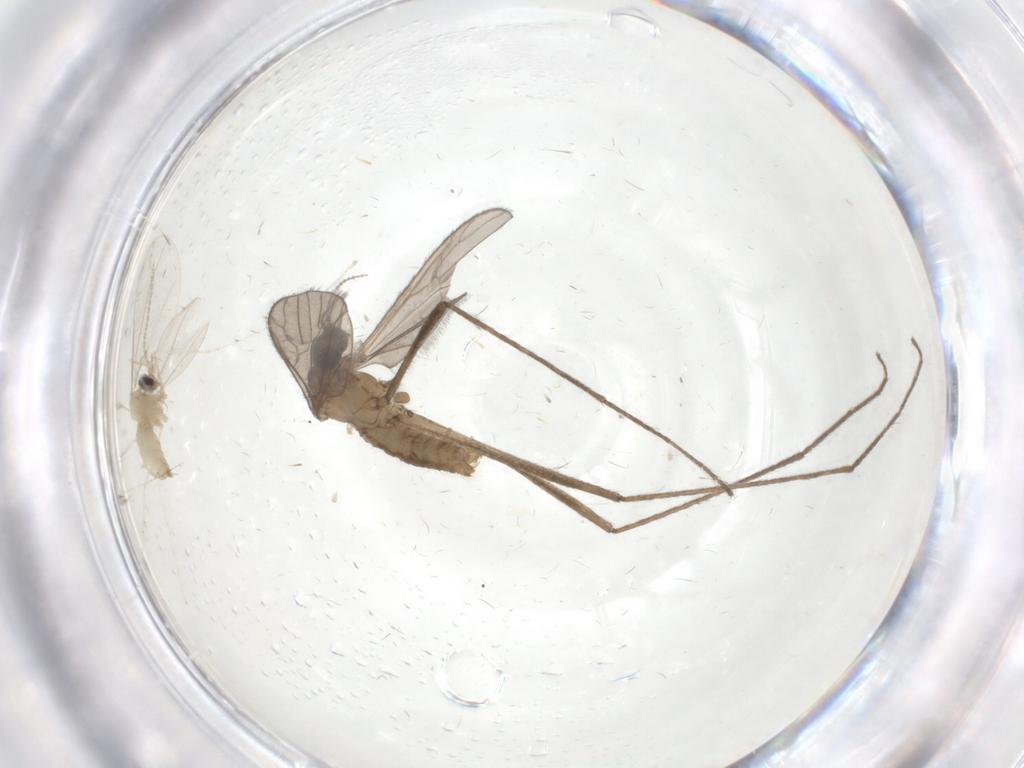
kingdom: Animalia
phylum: Arthropoda
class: Insecta
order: Diptera
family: Limoniidae
